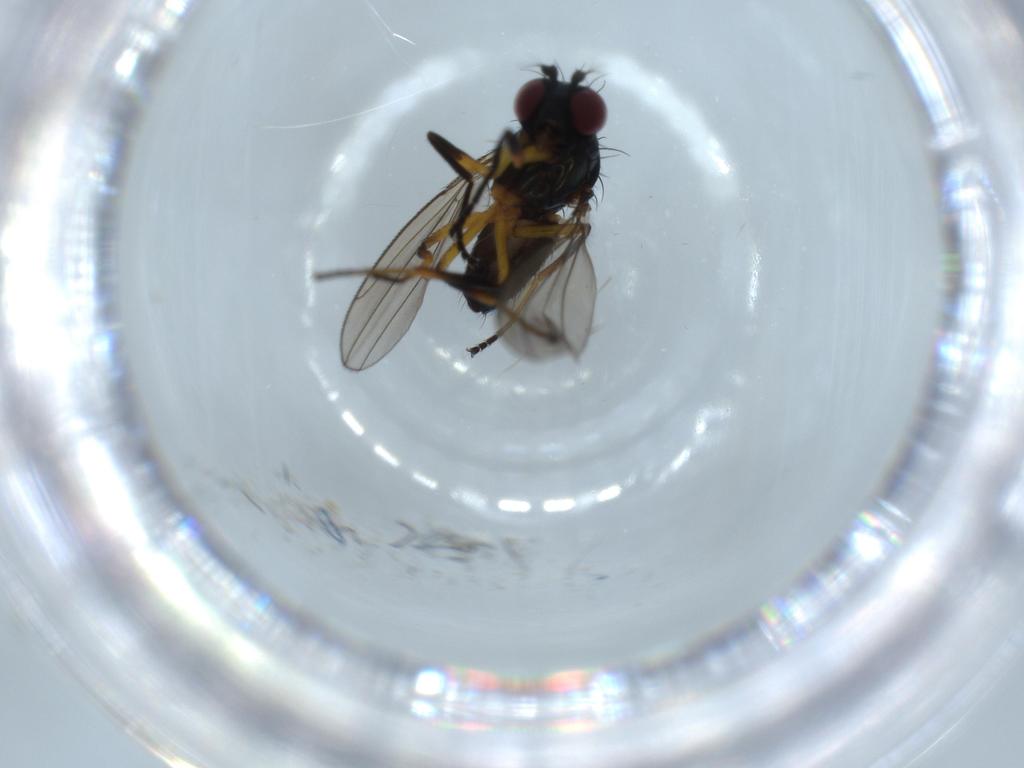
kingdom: Animalia
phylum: Arthropoda
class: Insecta
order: Diptera
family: Ephydridae
